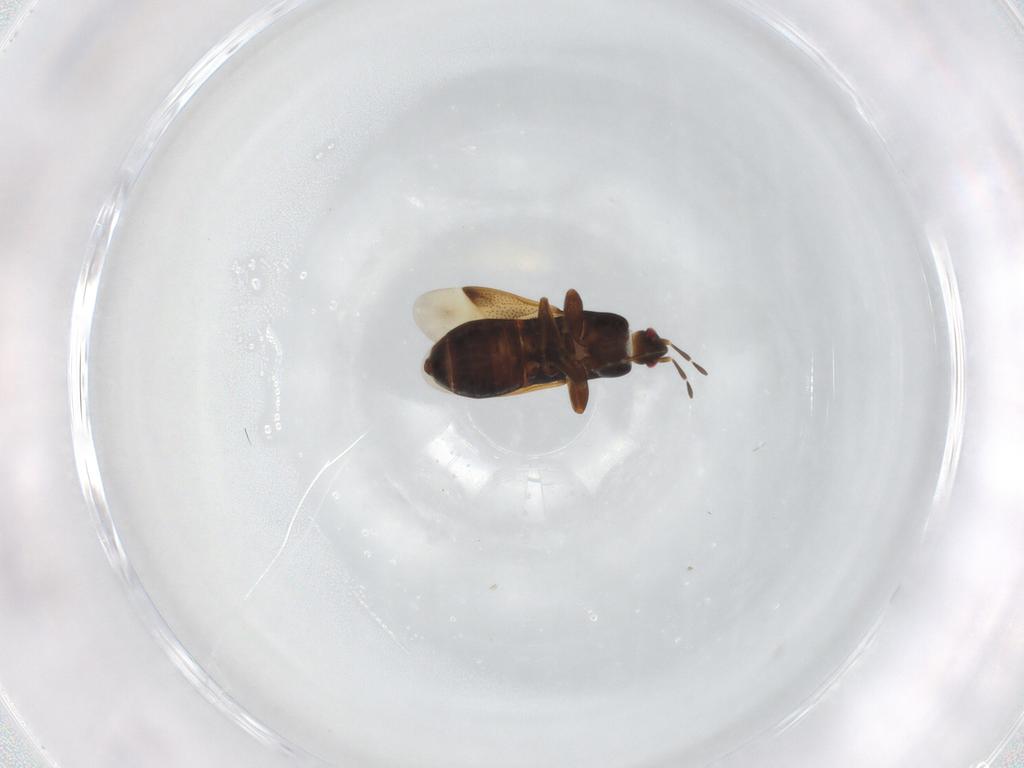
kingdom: Animalia
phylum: Arthropoda
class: Insecta
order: Hemiptera
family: Rhyparochromidae
